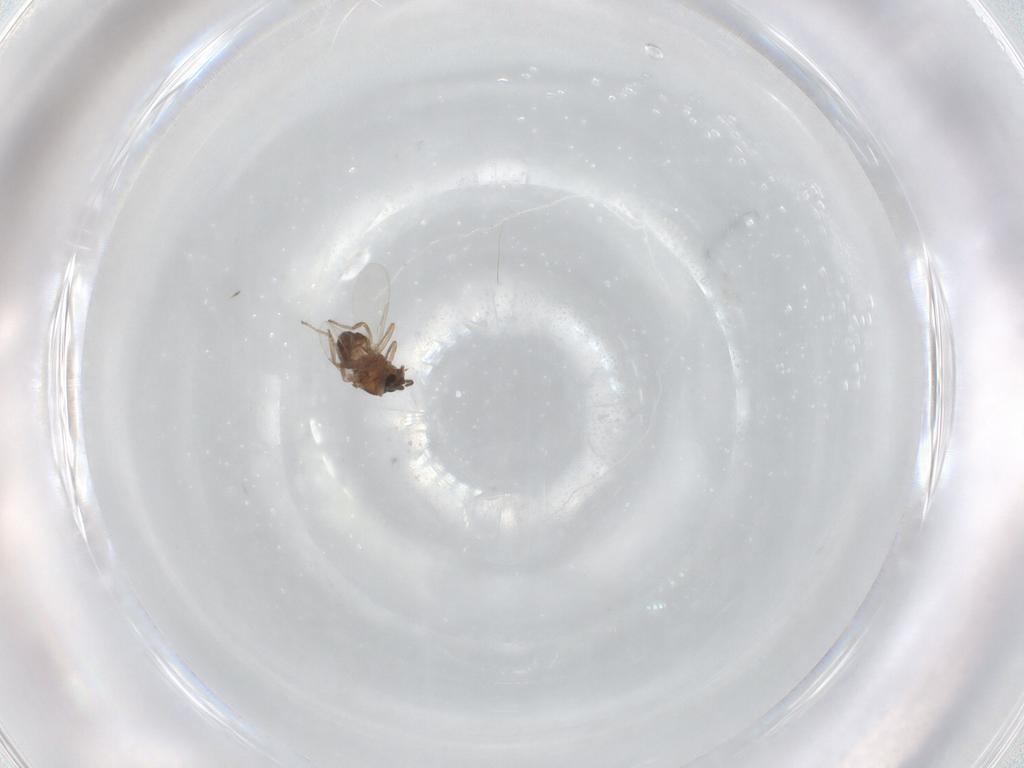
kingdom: Animalia
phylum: Arthropoda
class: Insecta
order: Diptera
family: Ceratopogonidae
